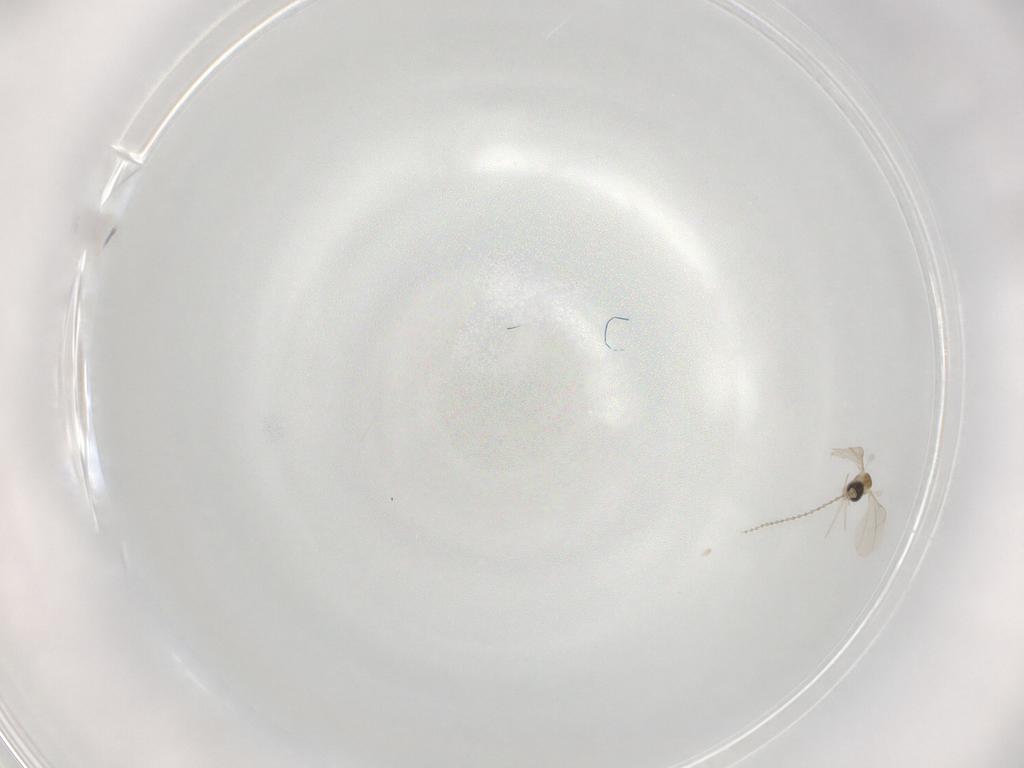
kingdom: Animalia
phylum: Arthropoda
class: Insecta
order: Diptera
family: Cecidomyiidae
